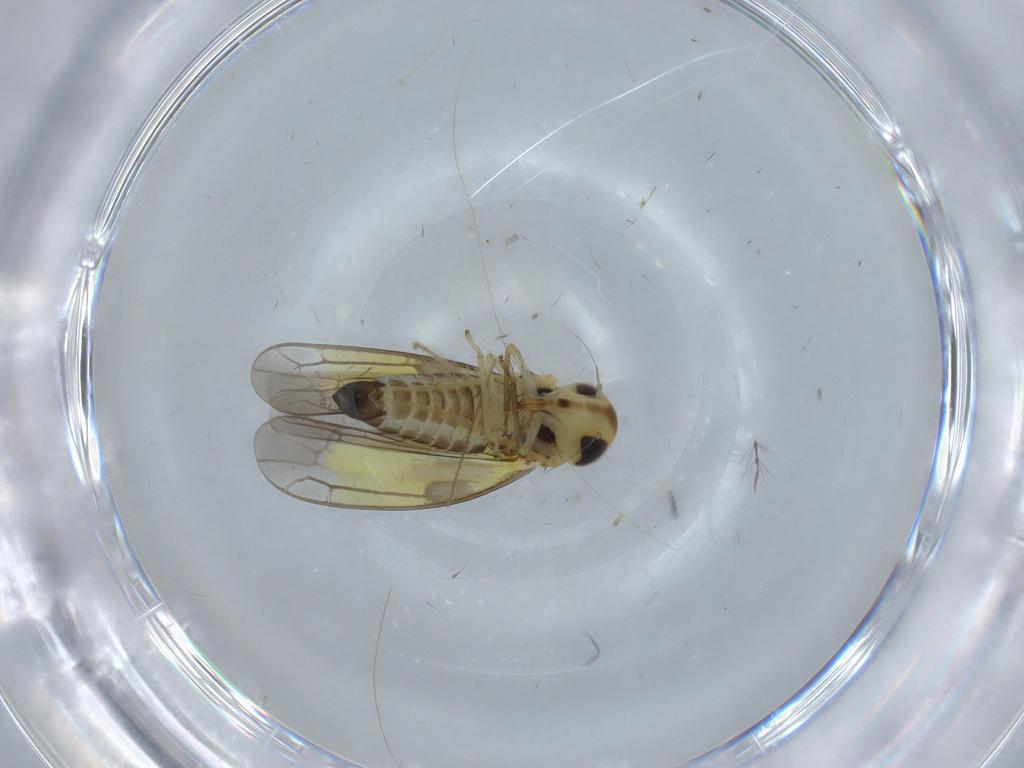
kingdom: Animalia
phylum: Arthropoda
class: Insecta
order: Hemiptera
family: Cicadellidae
